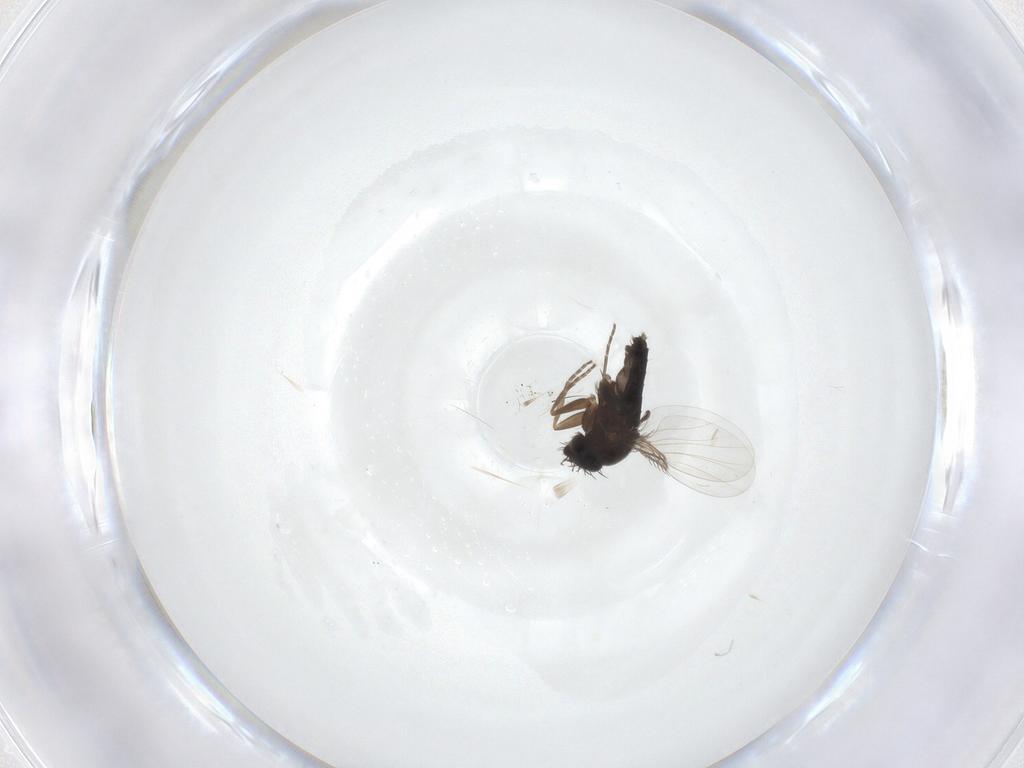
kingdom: Animalia
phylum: Arthropoda
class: Insecta
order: Diptera
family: Phoridae
